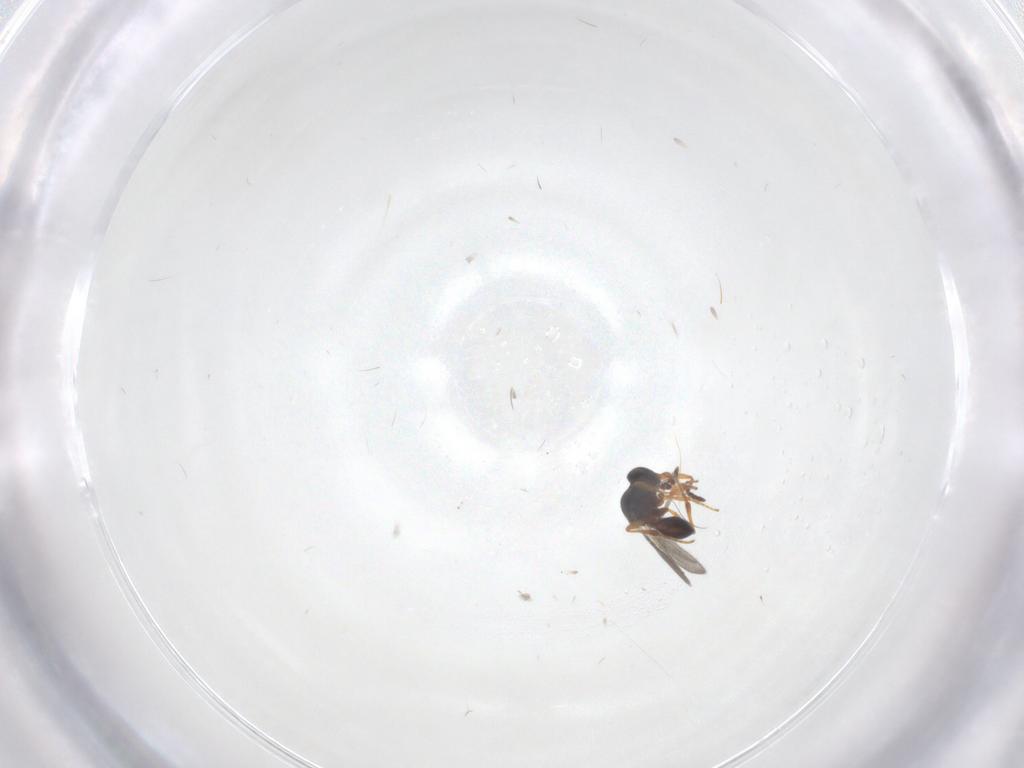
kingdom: Animalia
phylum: Arthropoda
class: Insecta
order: Hymenoptera
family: Platygastridae
